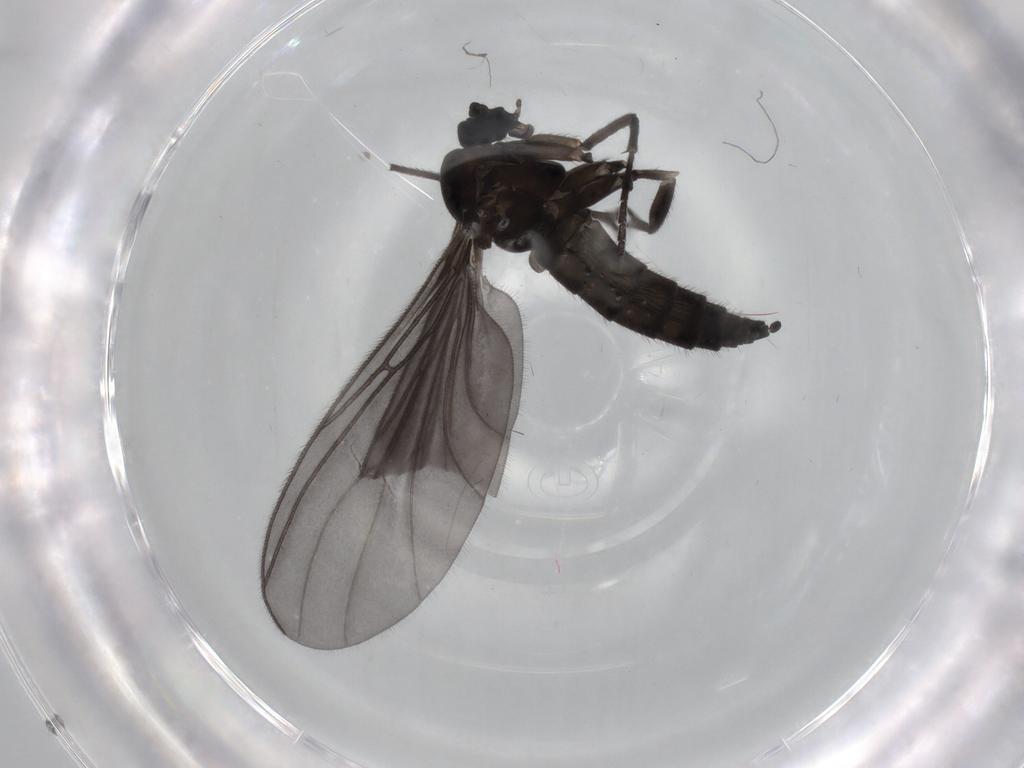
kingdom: Animalia
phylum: Arthropoda
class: Insecta
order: Diptera
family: Sciaridae
